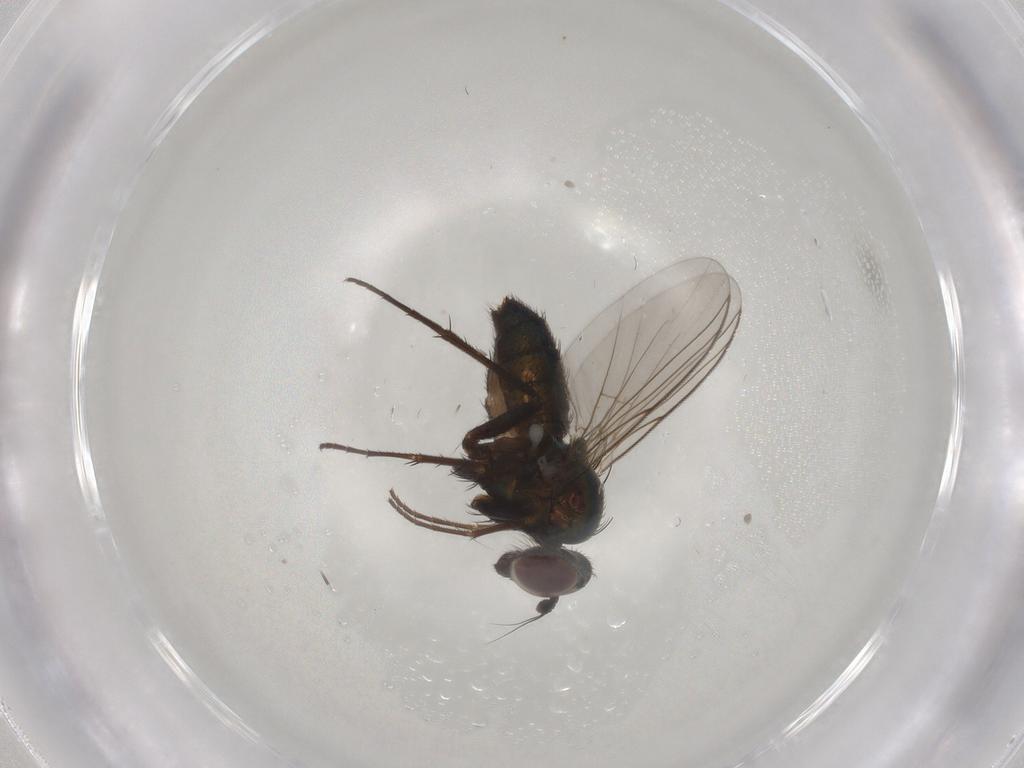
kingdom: Animalia
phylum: Arthropoda
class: Insecta
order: Diptera
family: Dolichopodidae
